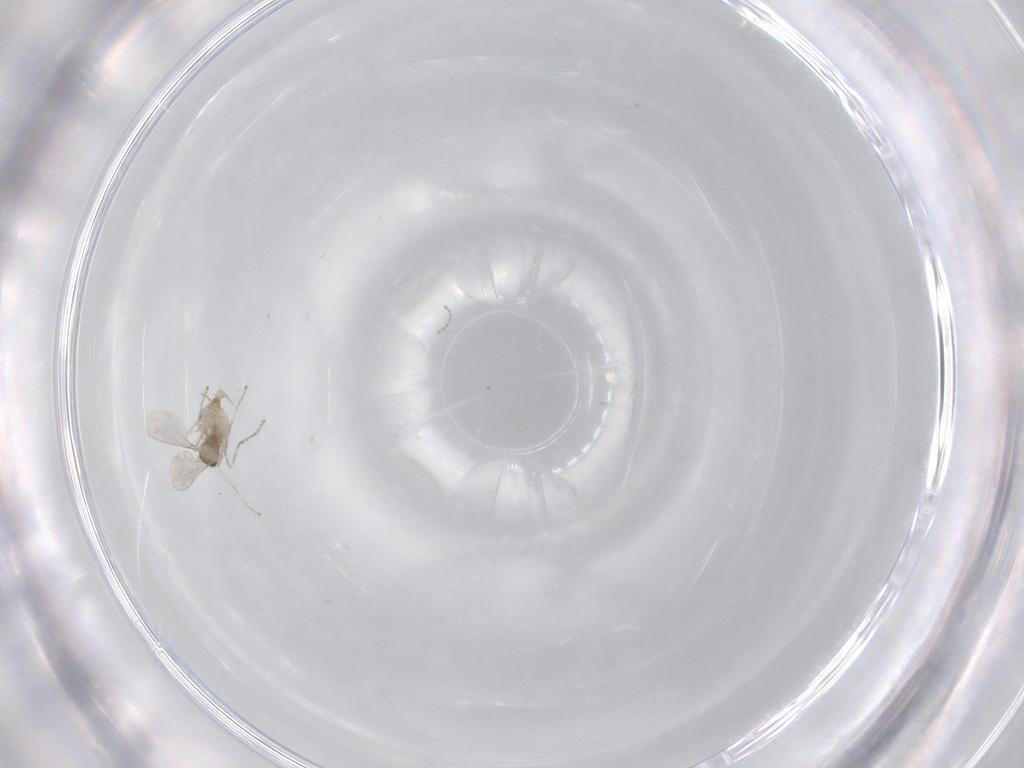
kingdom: Animalia
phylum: Arthropoda
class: Insecta
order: Diptera
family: Cecidomyiidae
